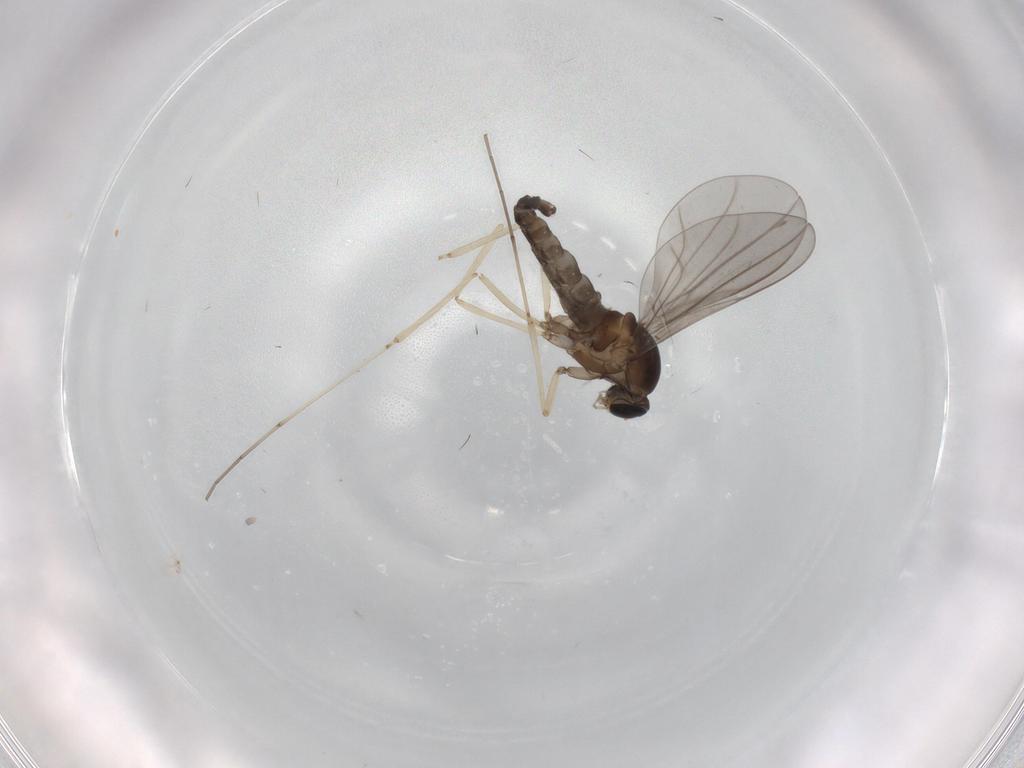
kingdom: Animalia
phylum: Arthropoda
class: Insecta
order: Diptera
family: Cecidomyiidae
